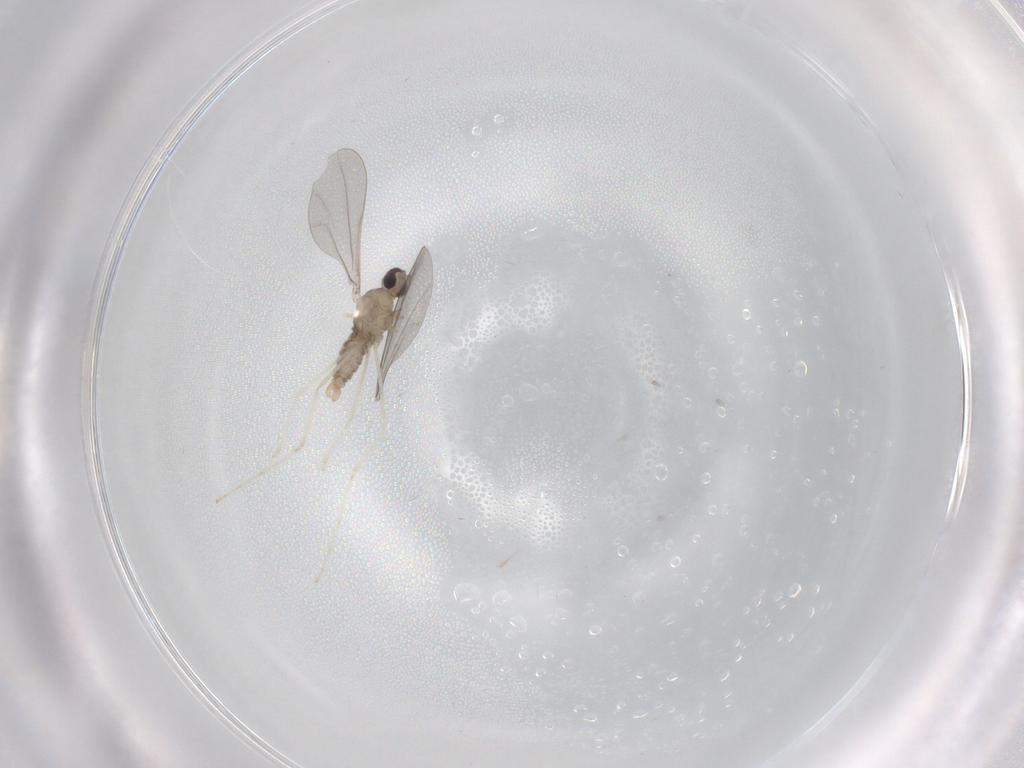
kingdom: Animalia
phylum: Arthropoda
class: Insecta
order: Diptera
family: Cecidomyiidae
